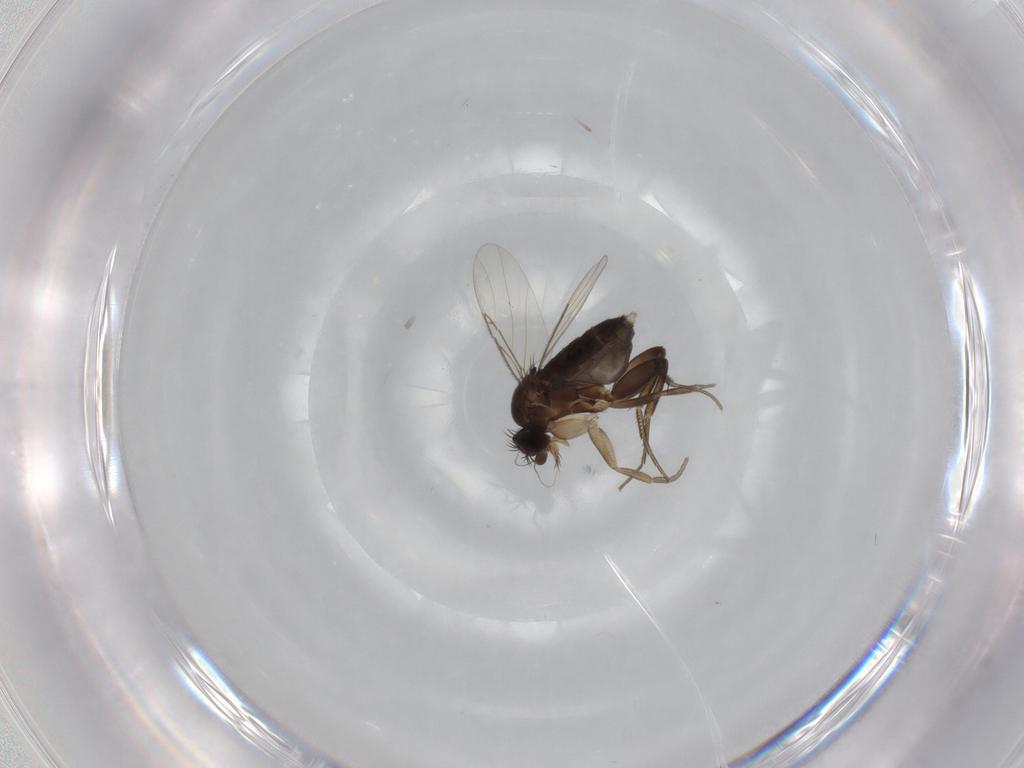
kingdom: Animalia
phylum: Arthropoda
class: Insecta
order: Diptera
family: Phoridae
